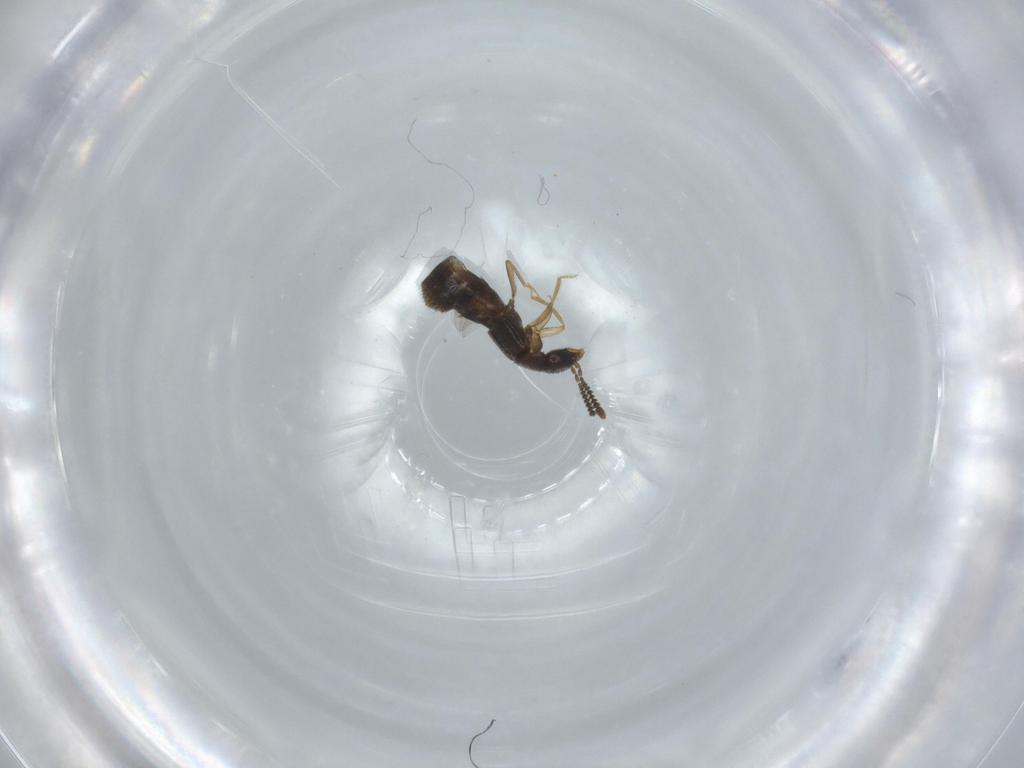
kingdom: Animalia
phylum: Arthropoda
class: Insecta
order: Coleoptera
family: Staphylinidae
